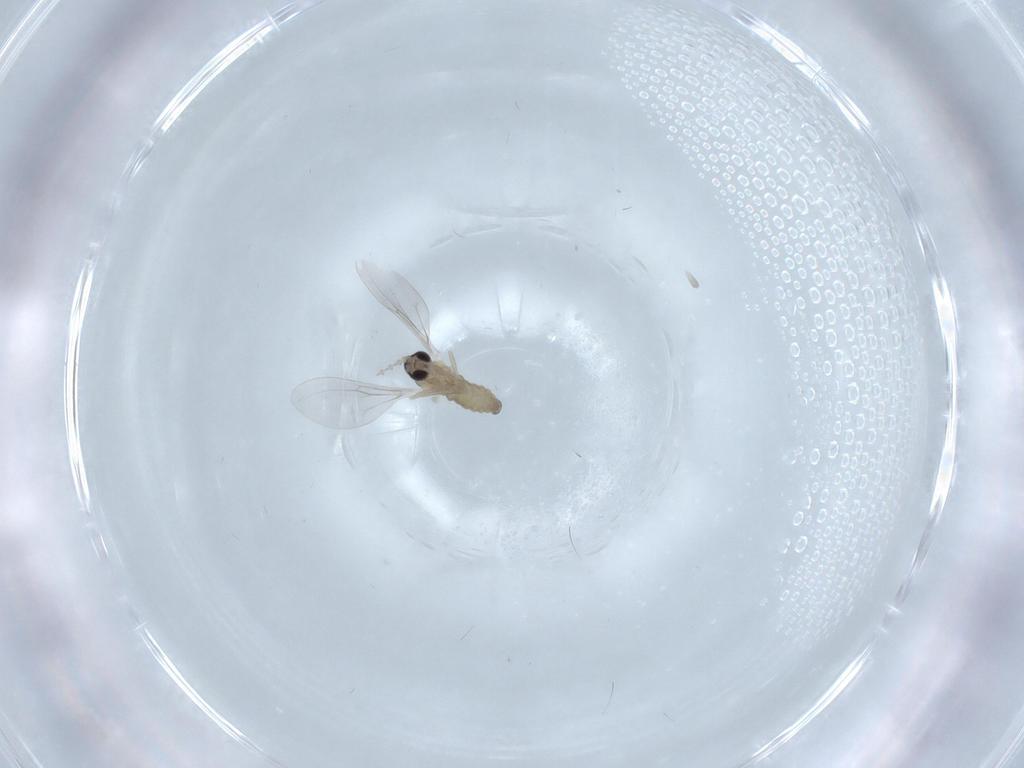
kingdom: Animalia
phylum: Arthropoda
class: Insecta
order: Diptera
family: Cecidomyiidae
